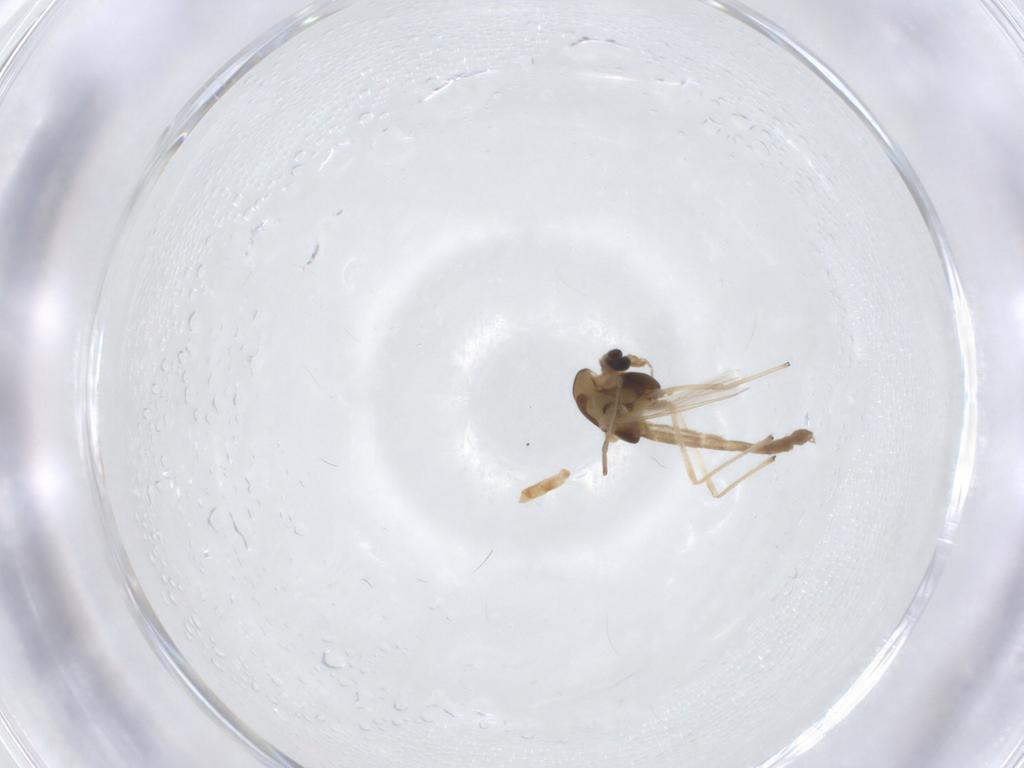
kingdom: Animalia
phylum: Arthropoda
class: Insecta
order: Diptera
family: Chironomidae
